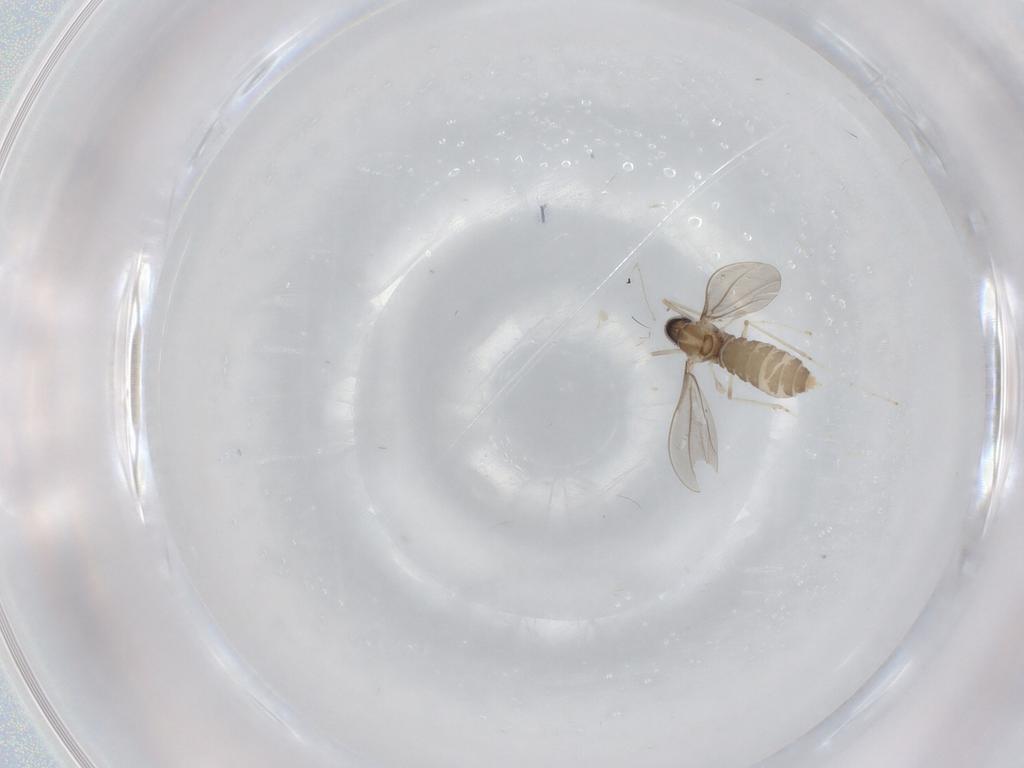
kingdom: Animalia
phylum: Arthropoda
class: Insecta
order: Diptera
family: Cecidomyiidae
